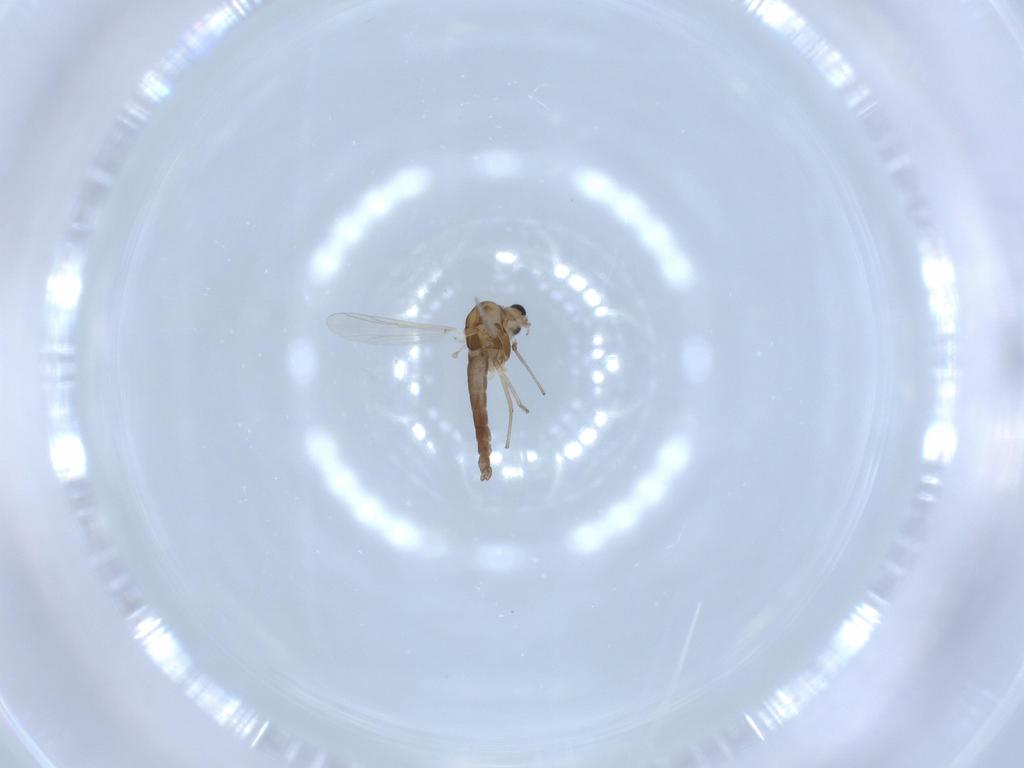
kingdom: Animalia
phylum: Arthropoda
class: Insecta
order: Diptera
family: Chironomidae
